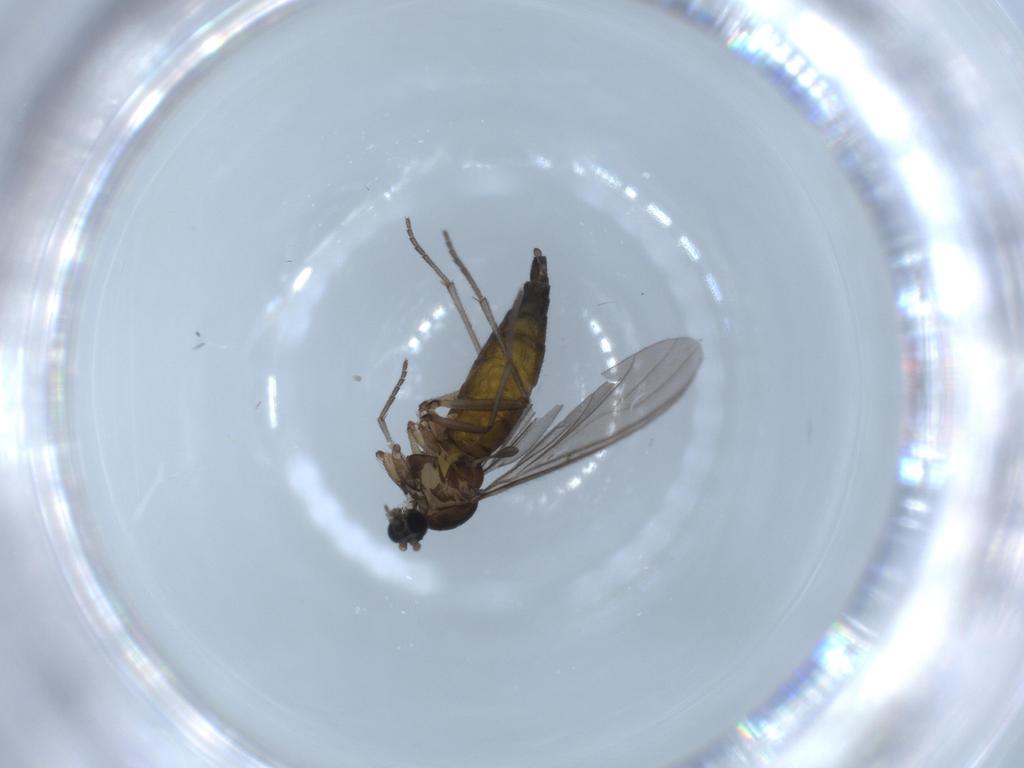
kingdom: Animalia
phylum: Arthropoda
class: Insecta
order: Diptera
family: Sciaridae
